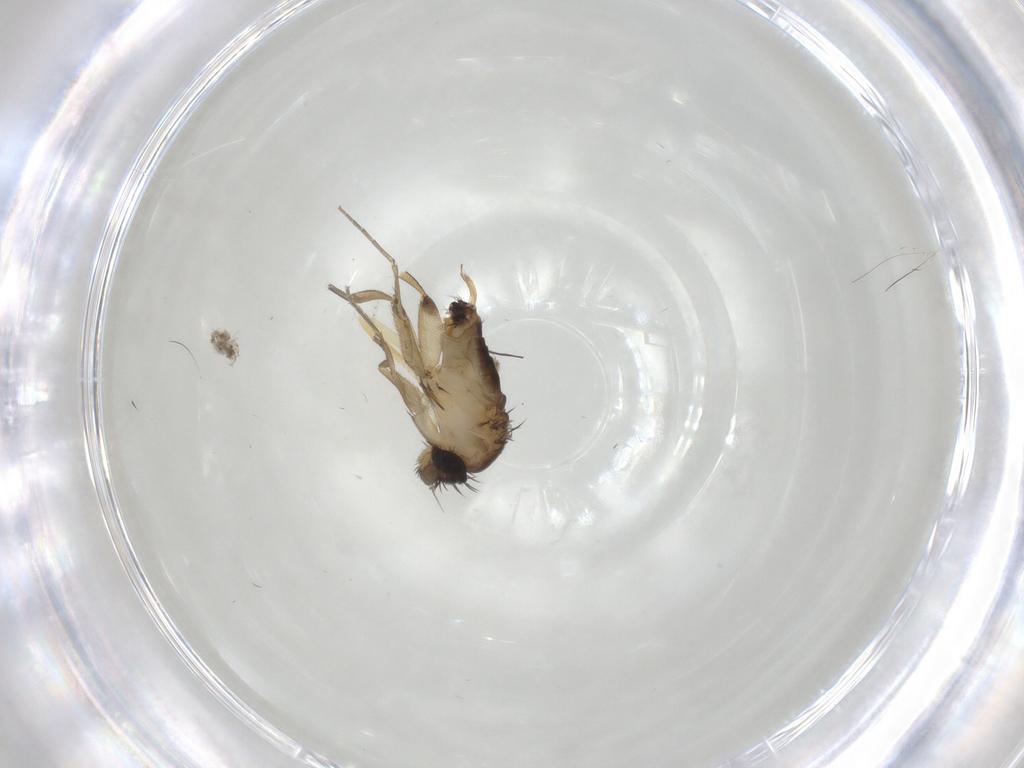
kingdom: Animalia
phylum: Arthropoda
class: Insecta
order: Diptera
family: Phoridae
